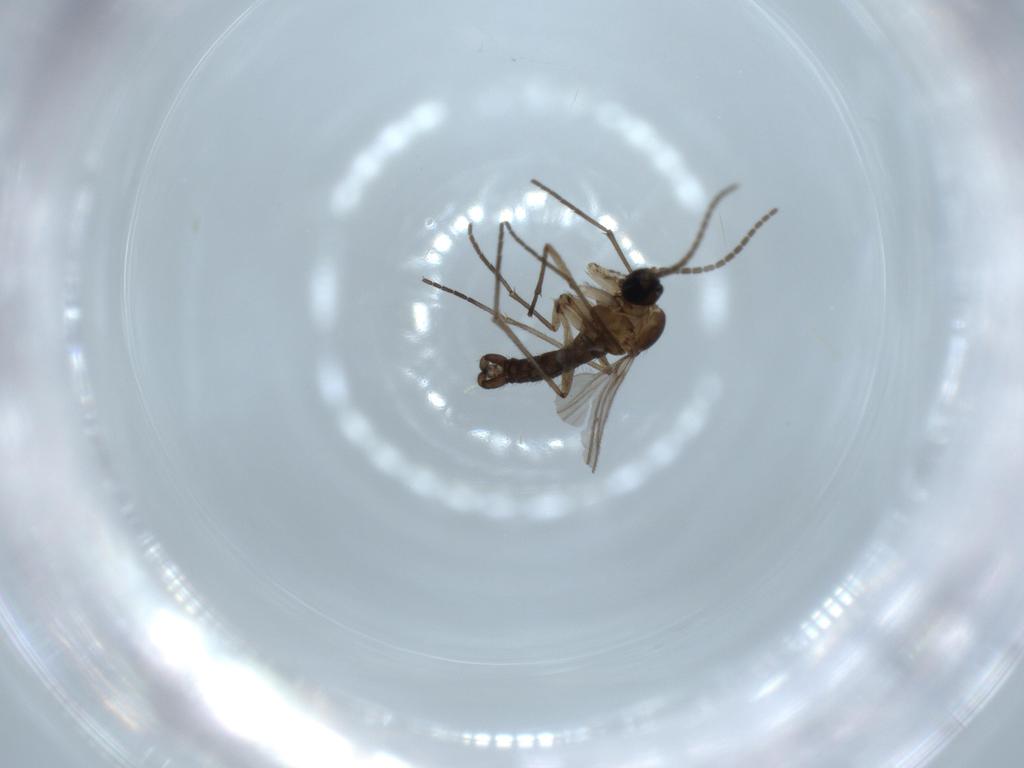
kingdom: Animalia
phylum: Arthropoda
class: Insecta
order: Diptera
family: Sciaridae
